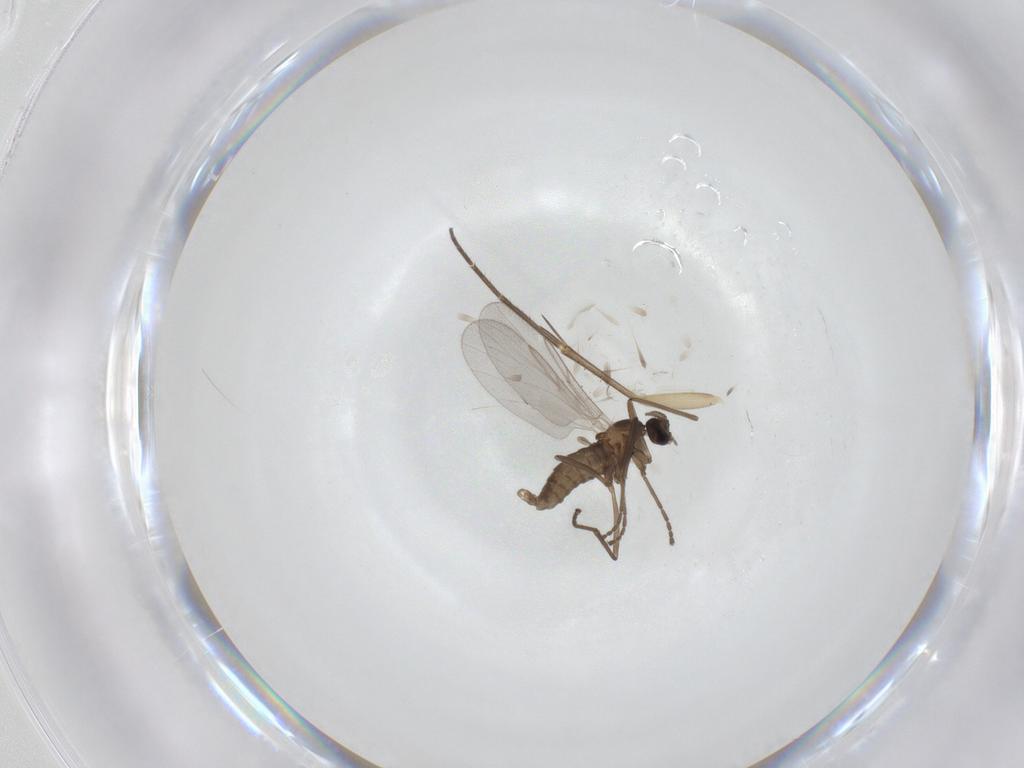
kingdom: Animalia
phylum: Arthropoda
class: Insecta
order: Diptera
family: Cecidomyiidae
